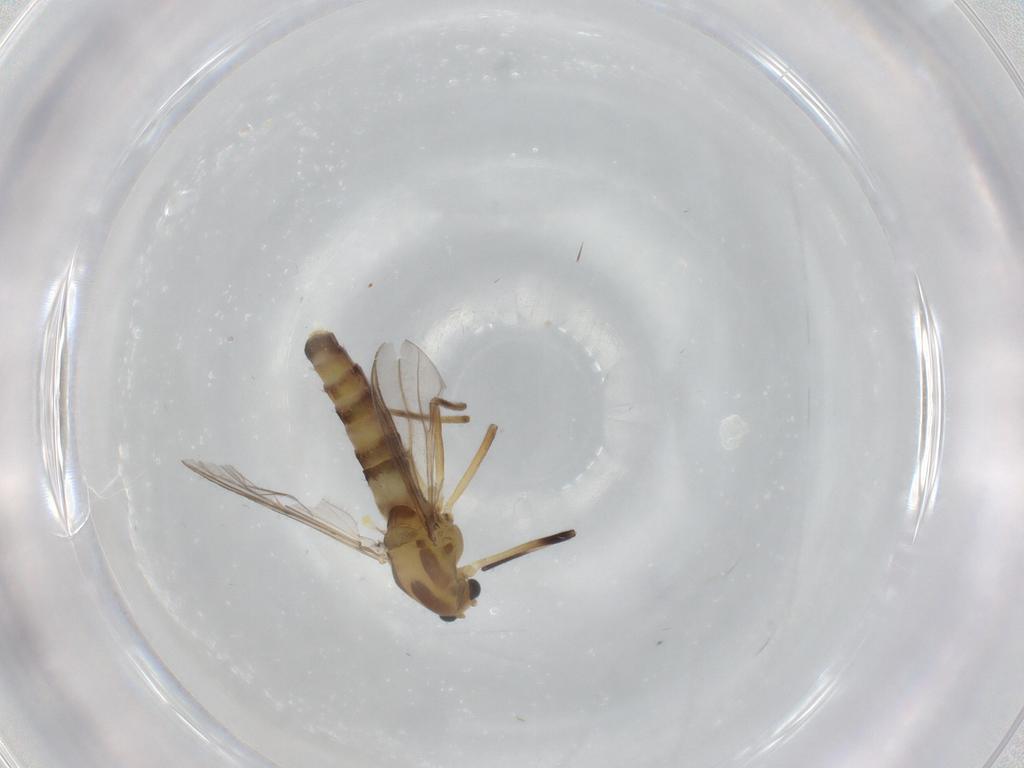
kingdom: Animalia
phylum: Arthropoda
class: Insecta
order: Diptera
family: Chironomidae
